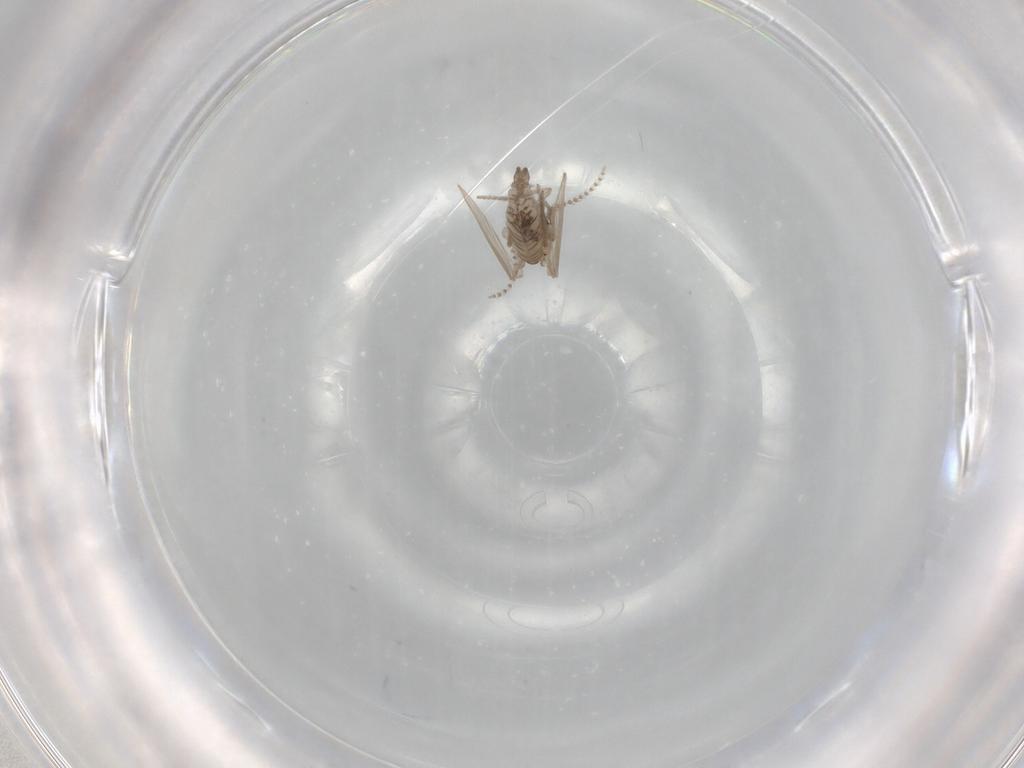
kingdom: Animalia
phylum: Arthropoda
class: Insecta
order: Diptera
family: Psychodidae
